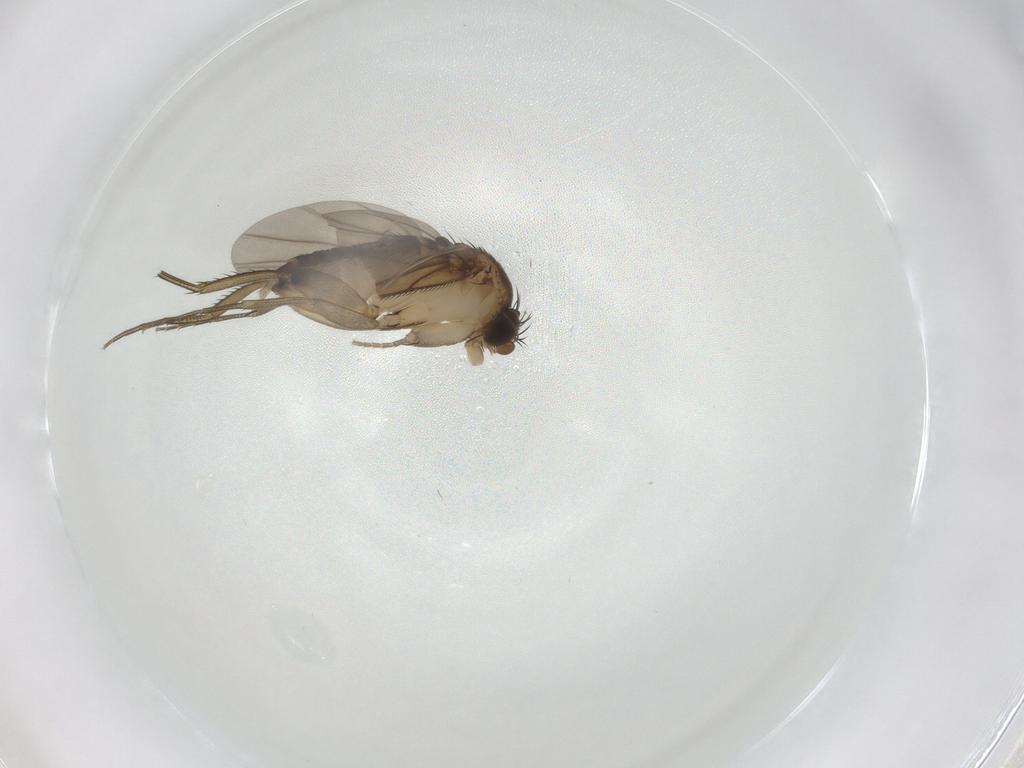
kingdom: Animalia
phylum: Arthropoda
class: Insecta
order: Diptera
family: Phoridae
